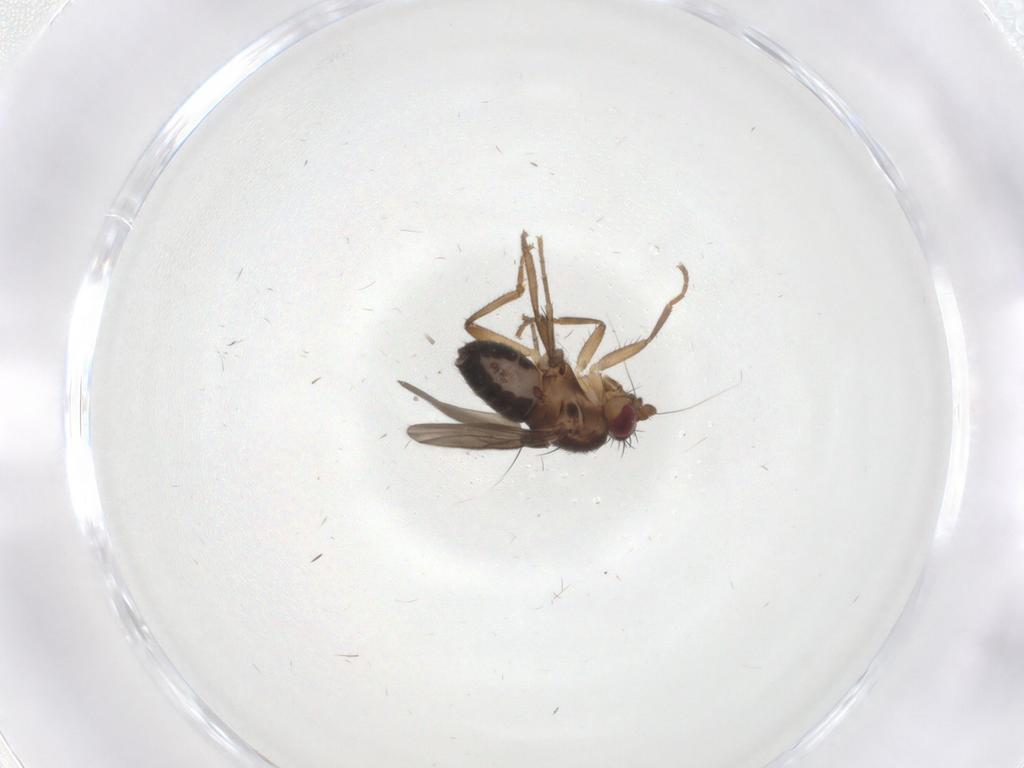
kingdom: Animalia
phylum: Arthropoda
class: Insecta
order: Diptera
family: Sphaeroceridae
